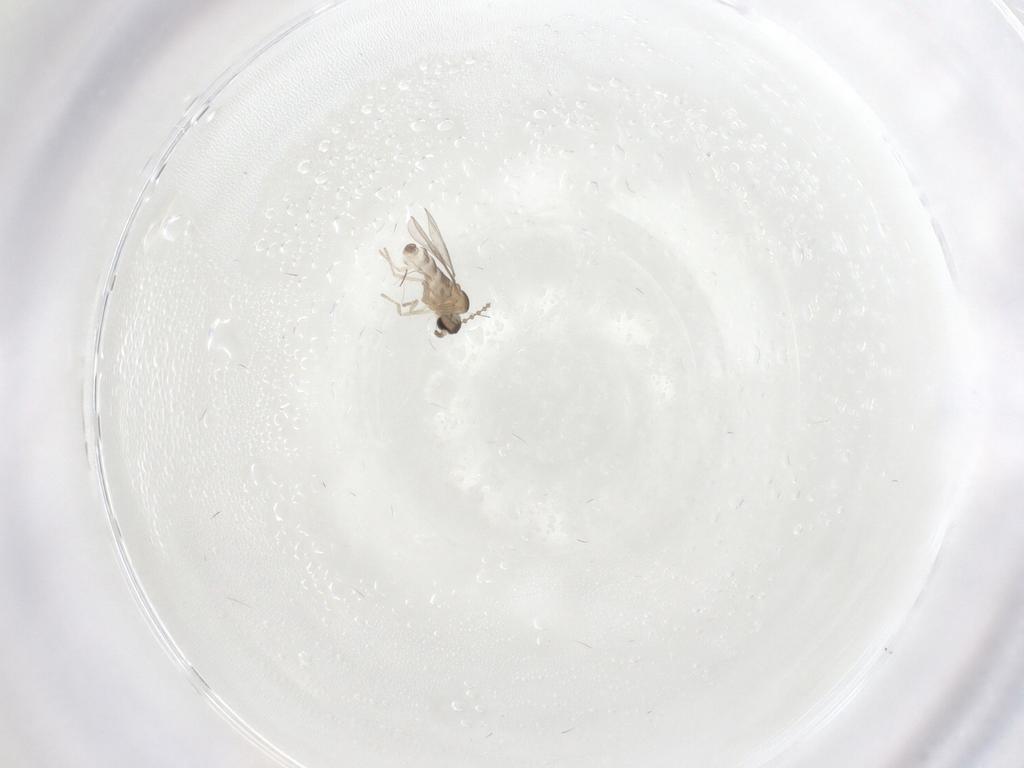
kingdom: Animalia
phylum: Arthropoda
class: Insecta
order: Diptera
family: Cecidomyiidae
